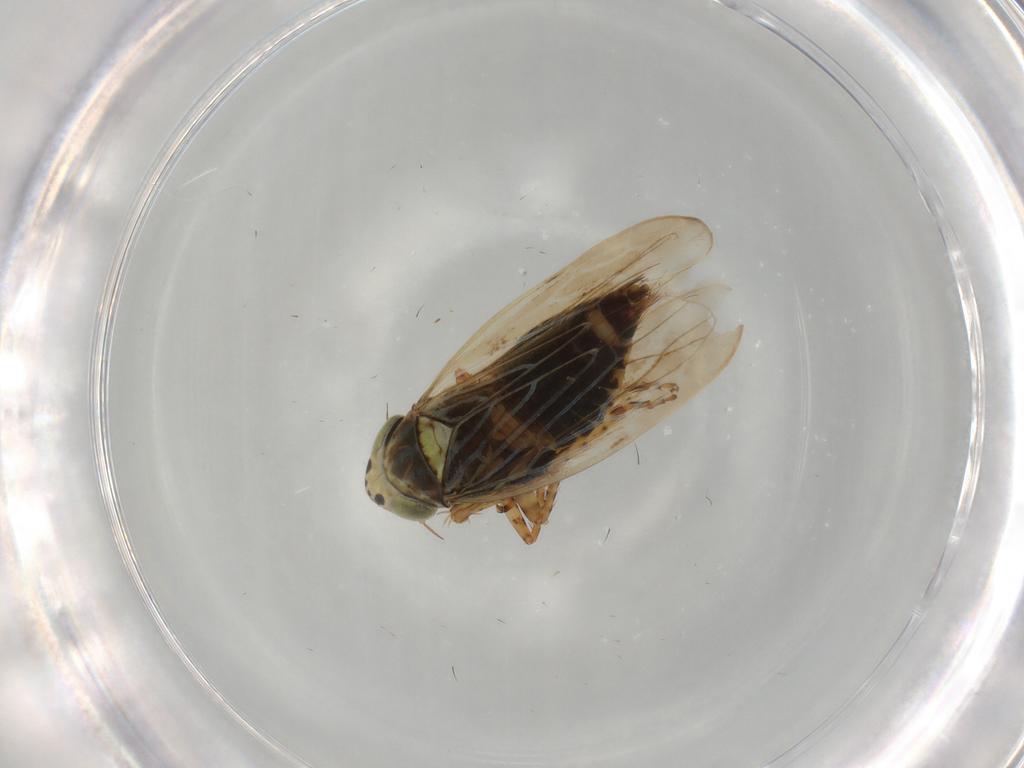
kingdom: Animalia
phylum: Arthropoda
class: Insecta
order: Hemiptera
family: Cicadellidae
